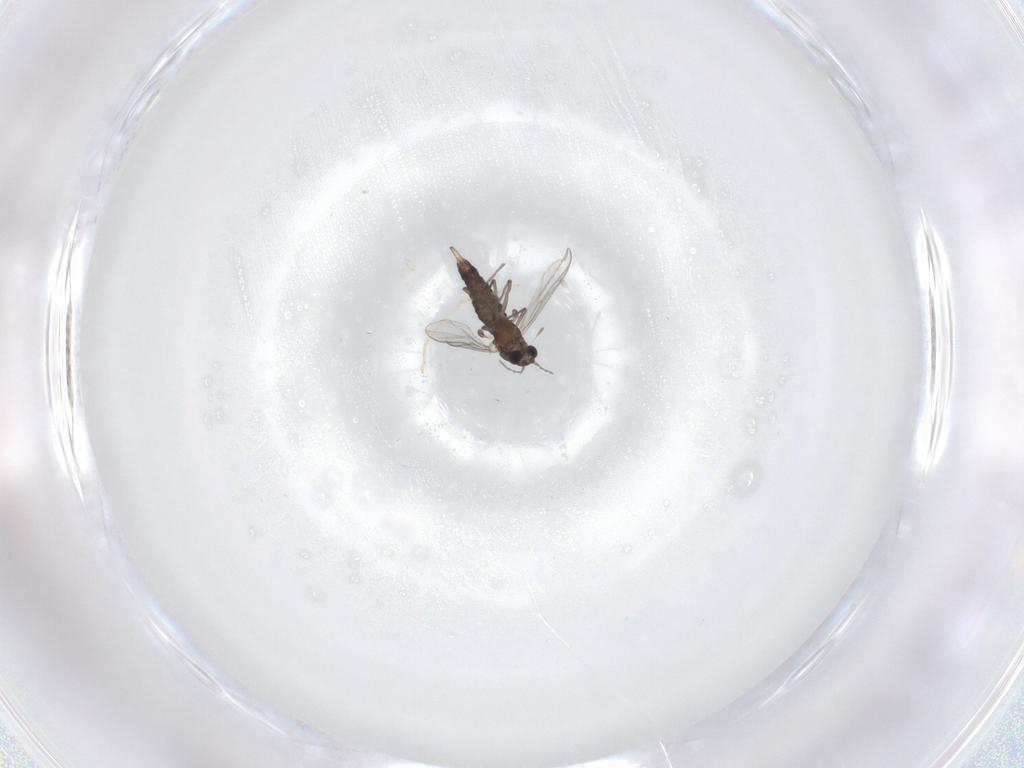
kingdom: Animalia
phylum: Arthropoda
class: Insecta
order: Diptera
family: Chironomidae
